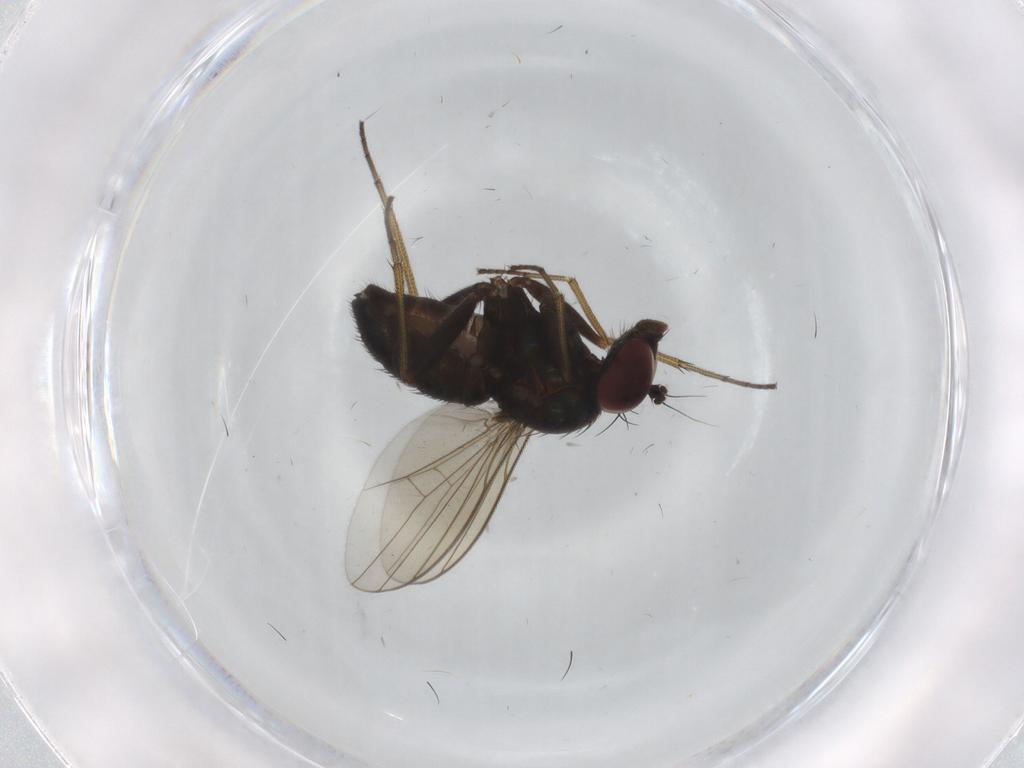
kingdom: Animalia
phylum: Arthropoda
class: Insecta
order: Diptera
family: Dolichopodidae
